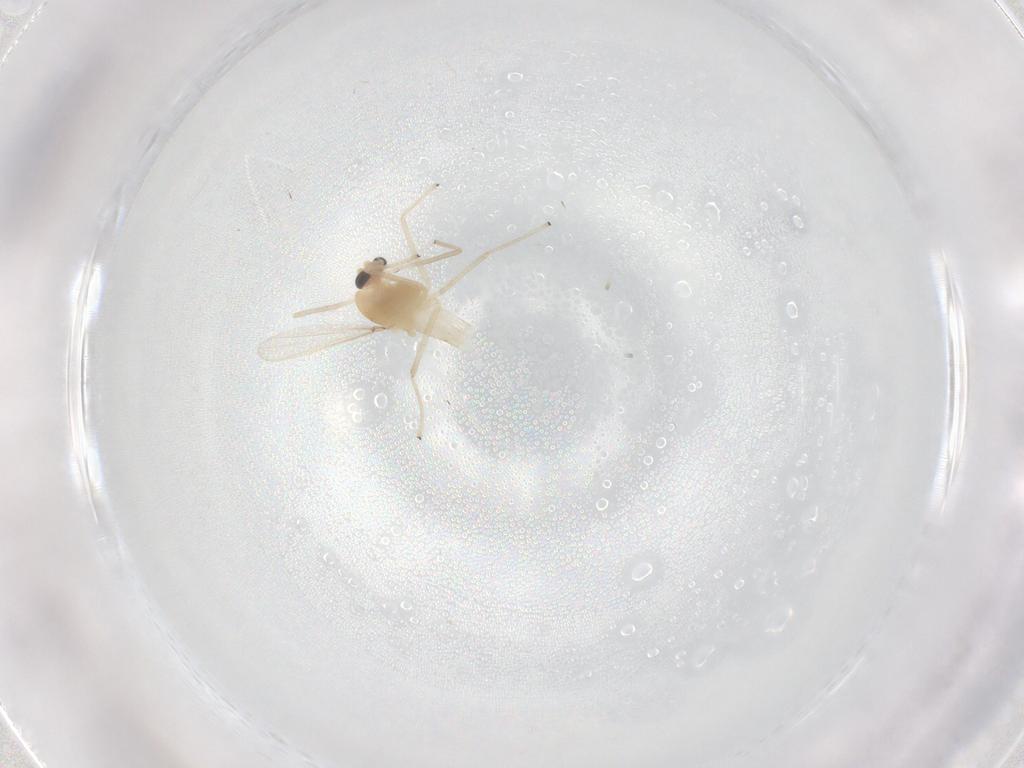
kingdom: Animalia
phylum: Arthropoda
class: Insecta
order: Diptera
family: Chironomidae
